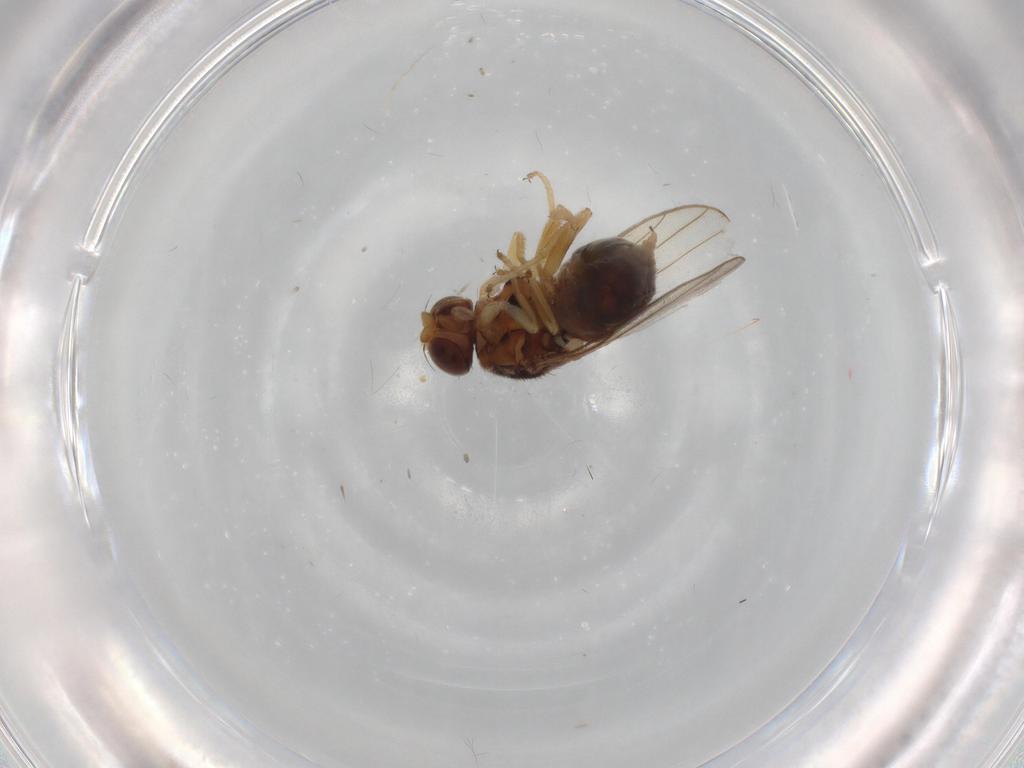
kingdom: Animalia
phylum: Arthropoda
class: Insecta
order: Diptera
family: Chloropidae
